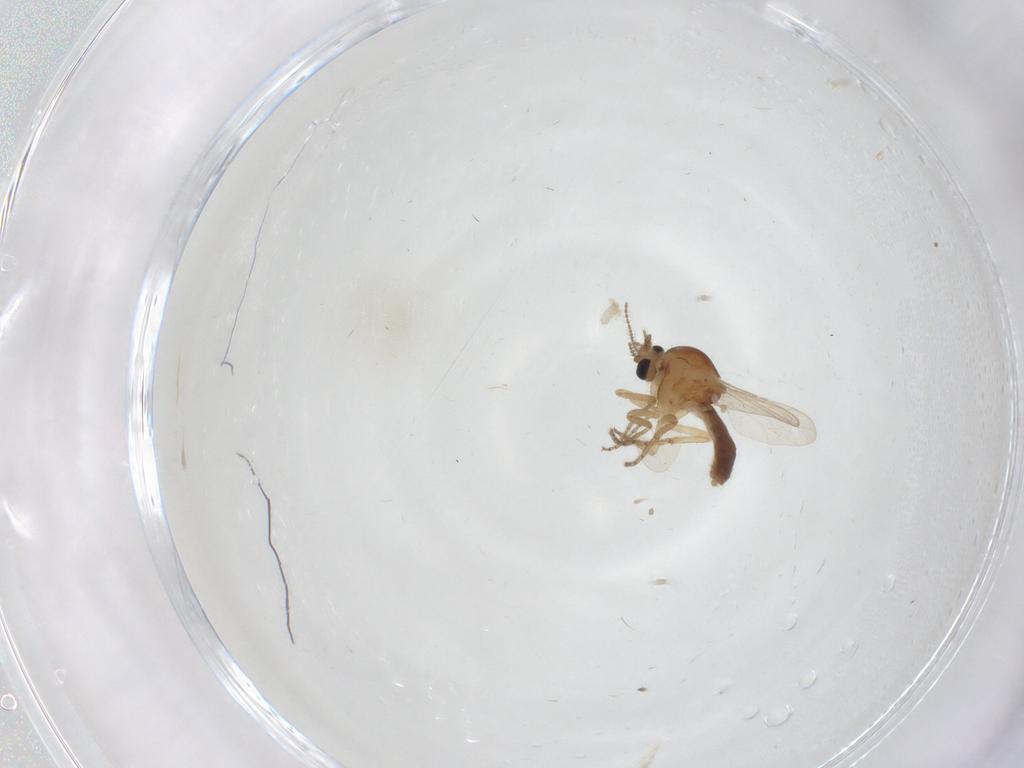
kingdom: Animalia
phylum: Arthropoda
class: Insecta
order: Diptera
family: Ceratopogonidae
